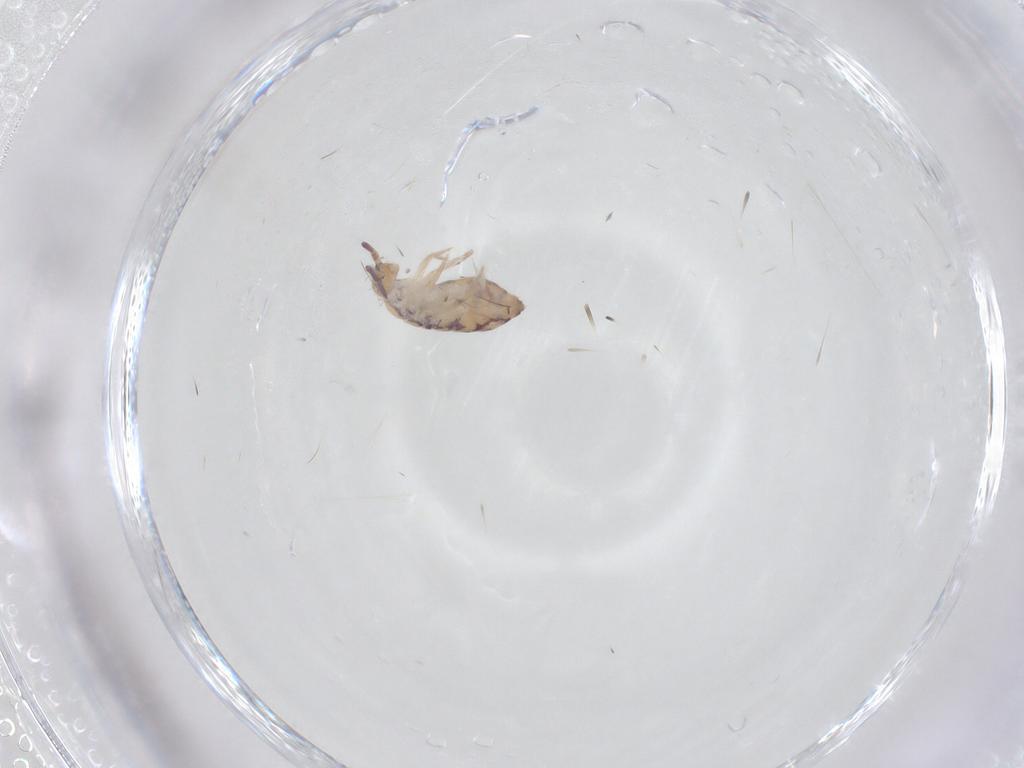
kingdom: Animalia
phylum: Arthropoda
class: Collembola
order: Entomobryomorpha
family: Entomobryidae
